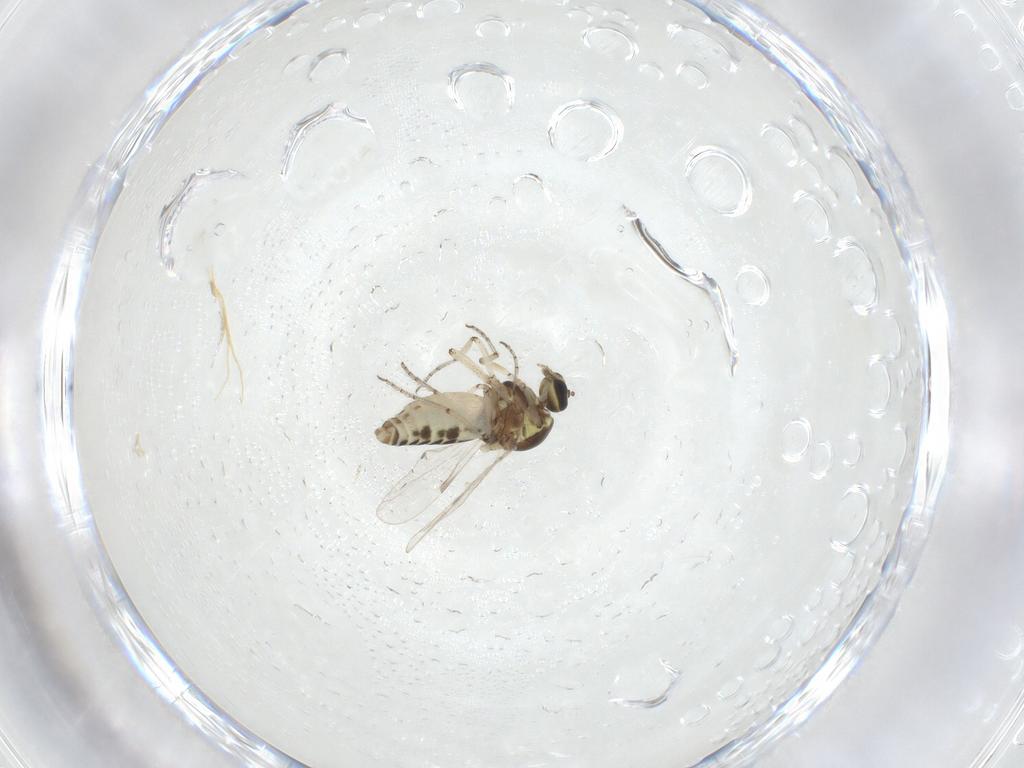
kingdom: Animalia
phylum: Arthropoda
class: Insecta
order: Diptera
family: Ceratopogonidae
